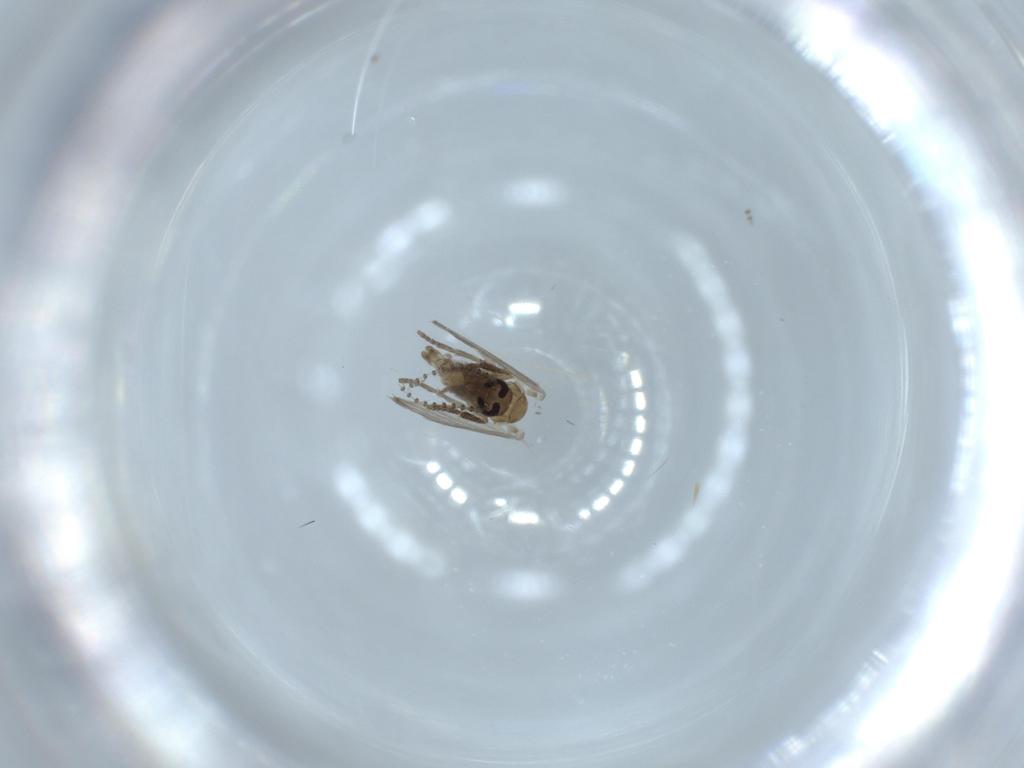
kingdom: Animalia
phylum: Arthropoda
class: Insecta
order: Diptera
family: Psychodidae
